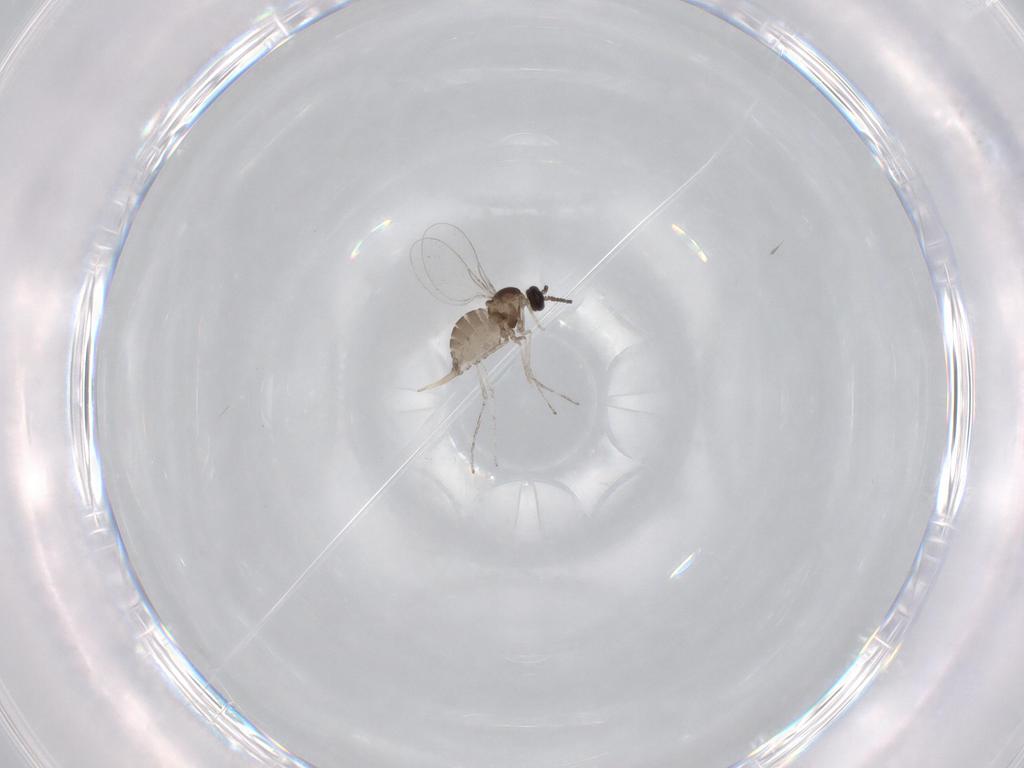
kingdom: Animalia
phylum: Arthropoda
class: Insecta
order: Diptera
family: Cecidomyiidae
